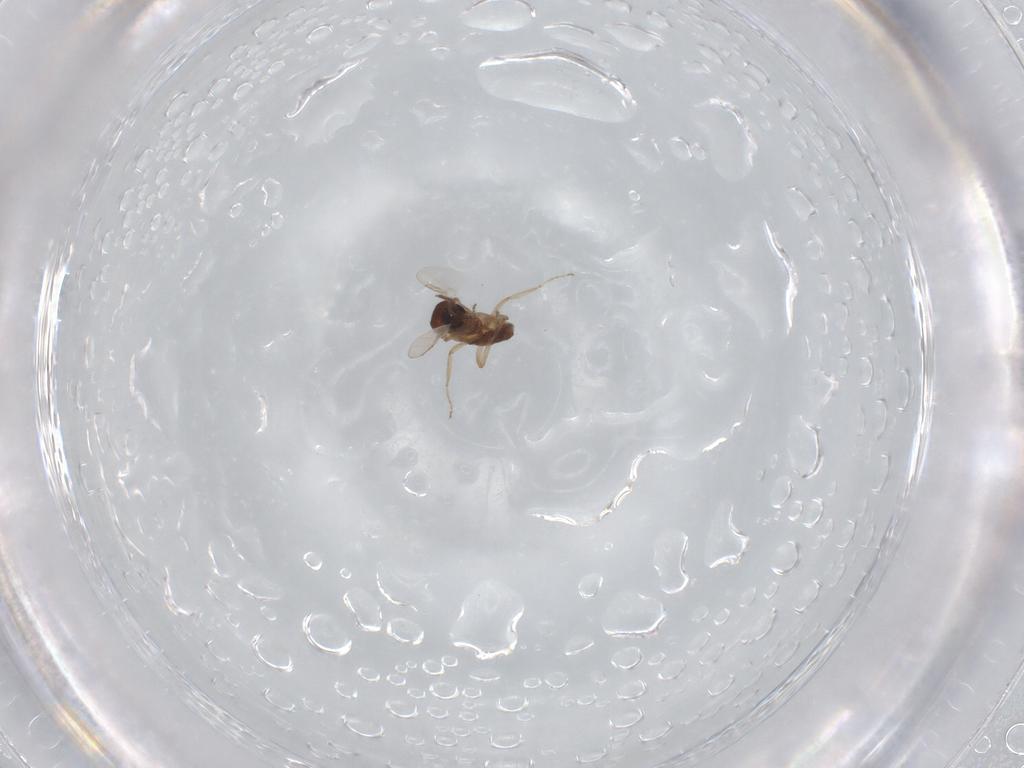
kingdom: Animalia
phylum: Arthropoda
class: Insecta
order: Diptera
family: Ceratopogonidae
